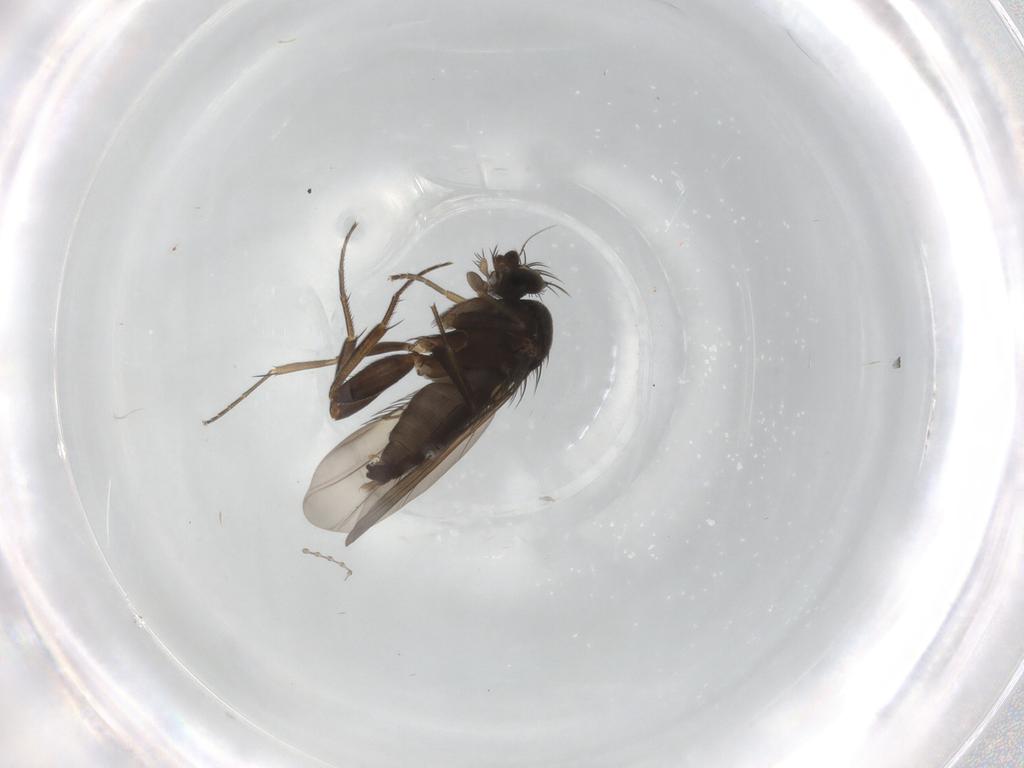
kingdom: Animalia
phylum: Arthropoda
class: Insecta
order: Diptera
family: Phoridae
